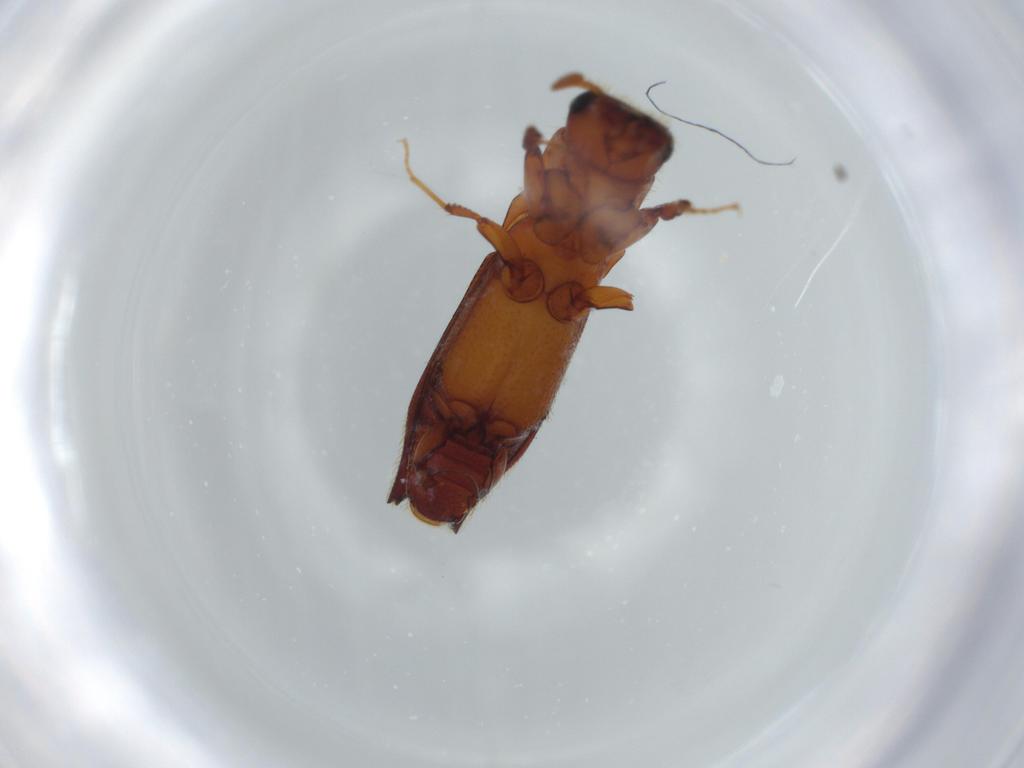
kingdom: Animalia
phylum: Arthropoda
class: Insecta
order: Coleoptera
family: Curculionidae
